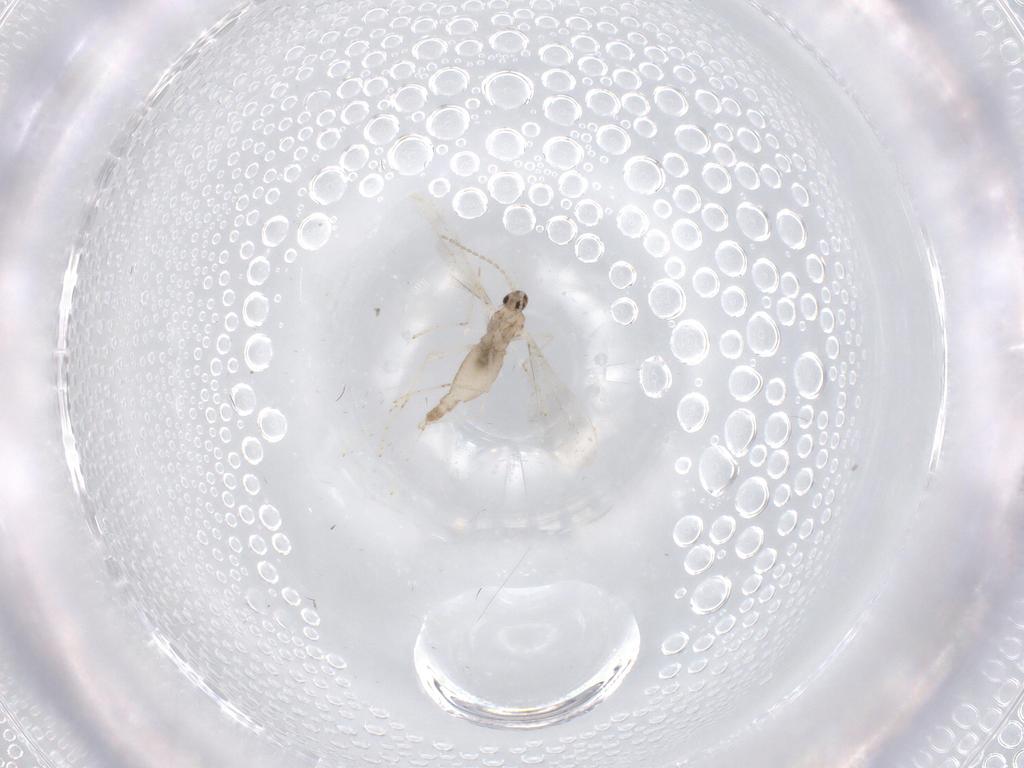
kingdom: Animalia
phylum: Arthropoda
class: Insecta
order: Diptera
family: Cecidomyiidae
